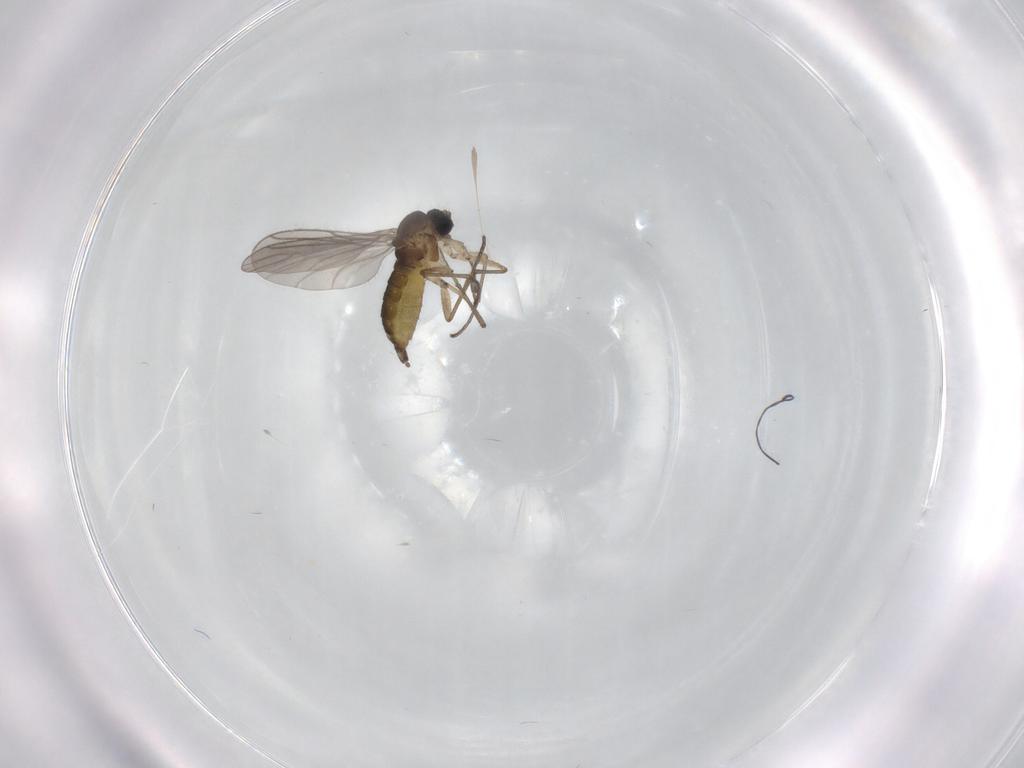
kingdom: Animalia
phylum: Arthropoda
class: Insecta
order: Diptera
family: Sciaridae
